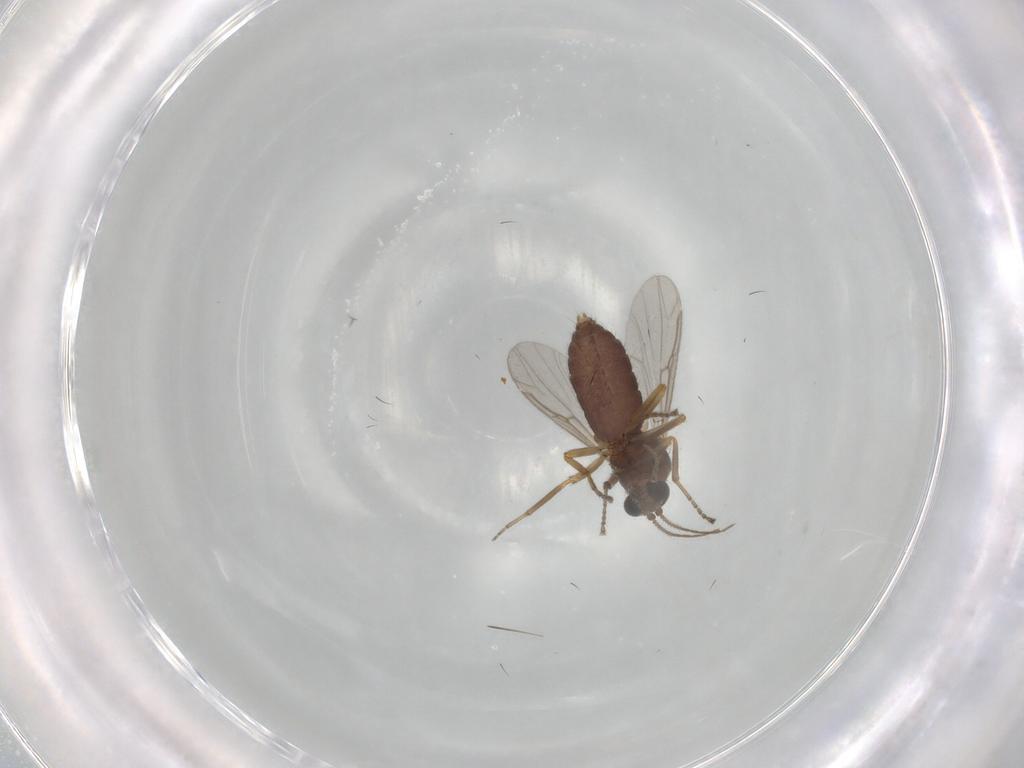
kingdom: Animalia
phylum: Arthropoda
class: Insecta
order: Diptera
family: Ceratopogonidae
